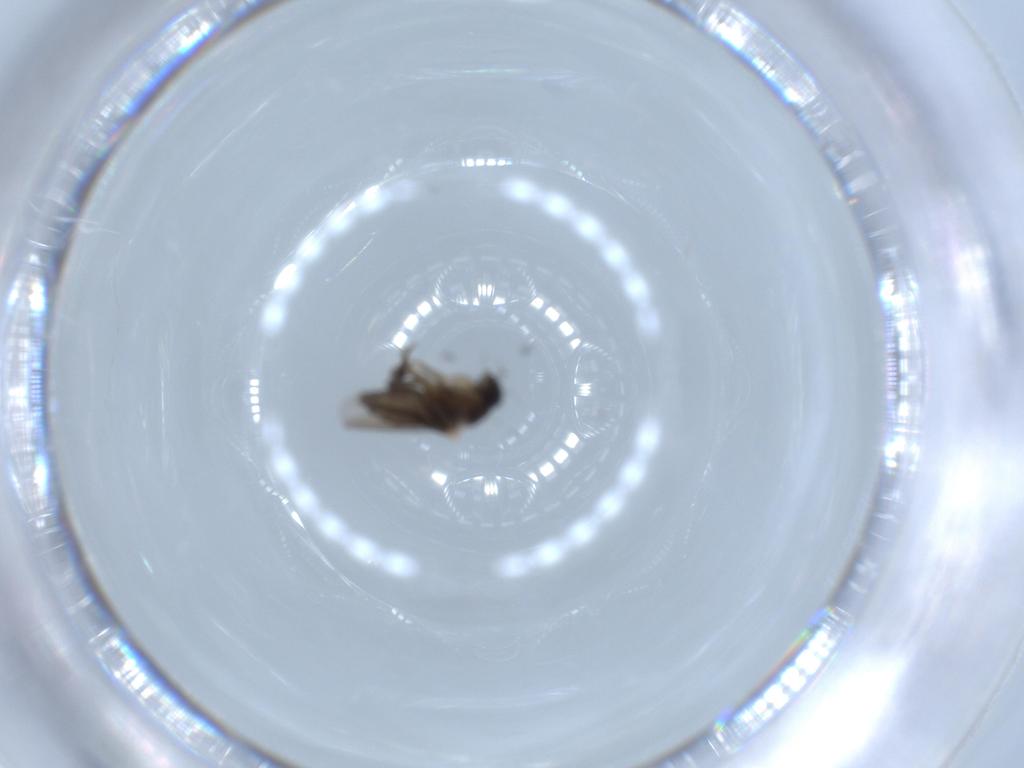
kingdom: Animalia
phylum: Arthropoda
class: Insecta
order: Diptera
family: Phoridae
